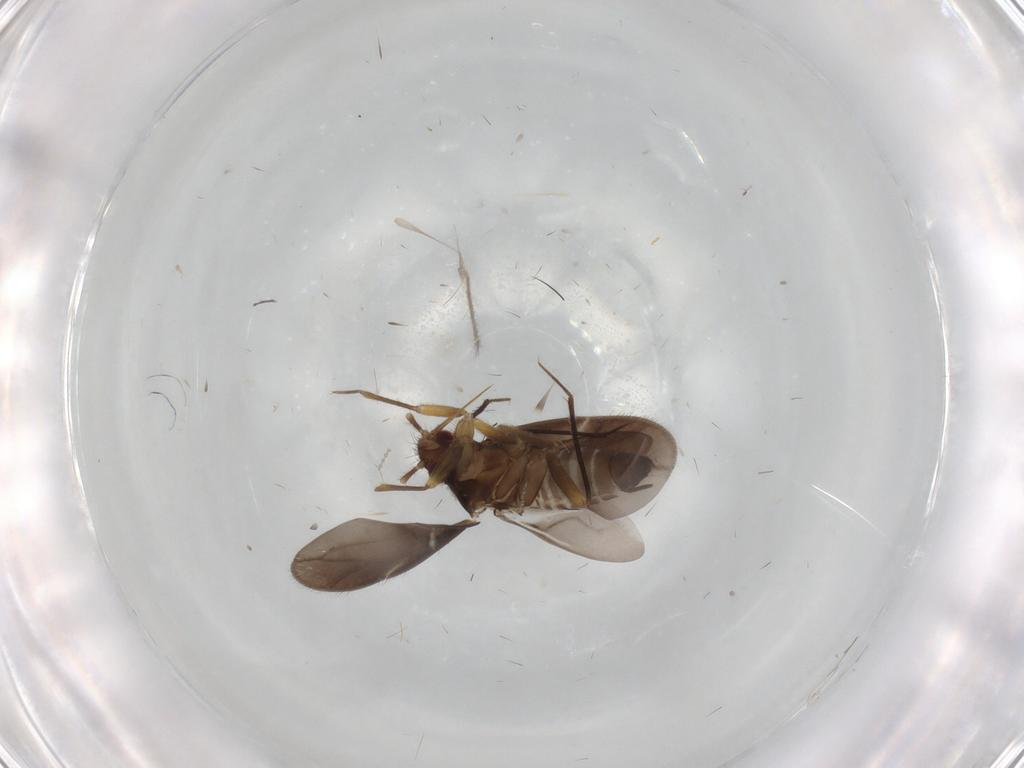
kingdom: Animalia
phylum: Arthropoda
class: Insecta
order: Hemiptera
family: Ceratocombidae
